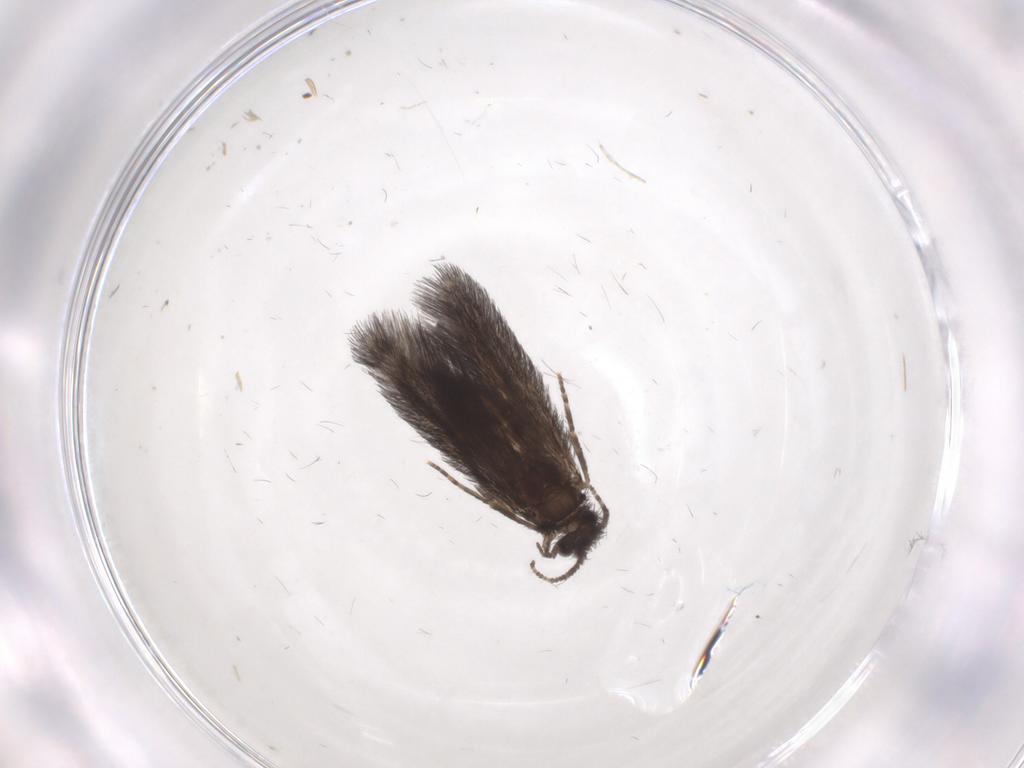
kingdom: Animalia
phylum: Arthropoda
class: Insecta
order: Trichoptera
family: Hydroptilidae
